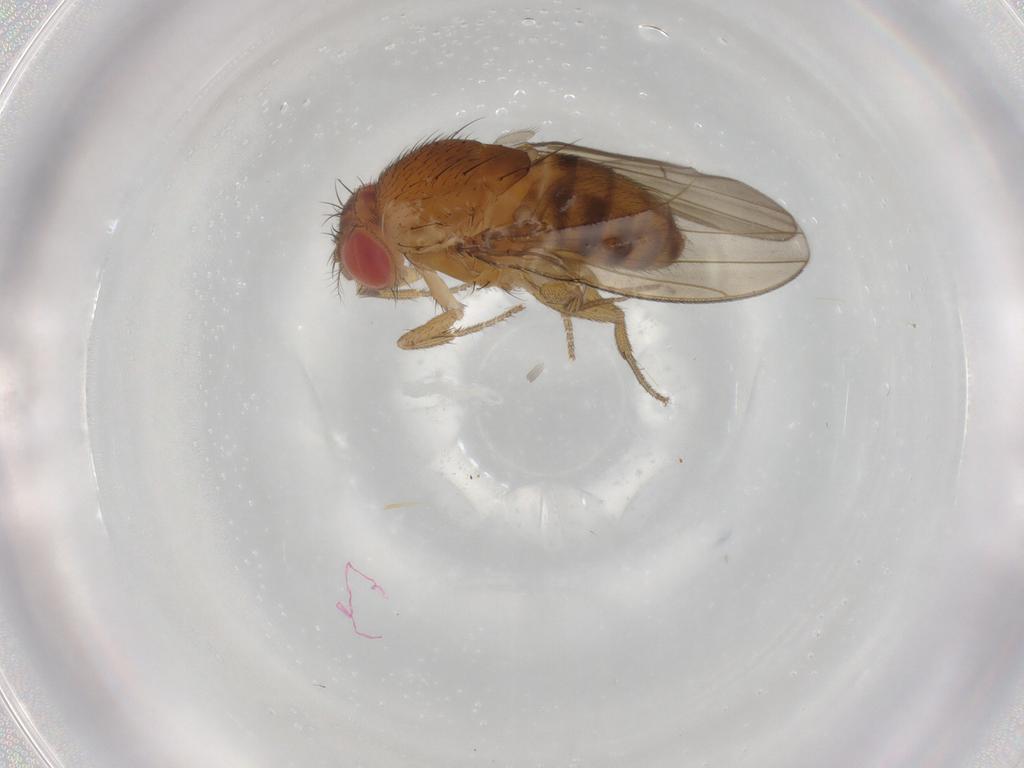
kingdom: Animalia
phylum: Arthropoda
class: Insecta
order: Diptera
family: Drosophilidae
